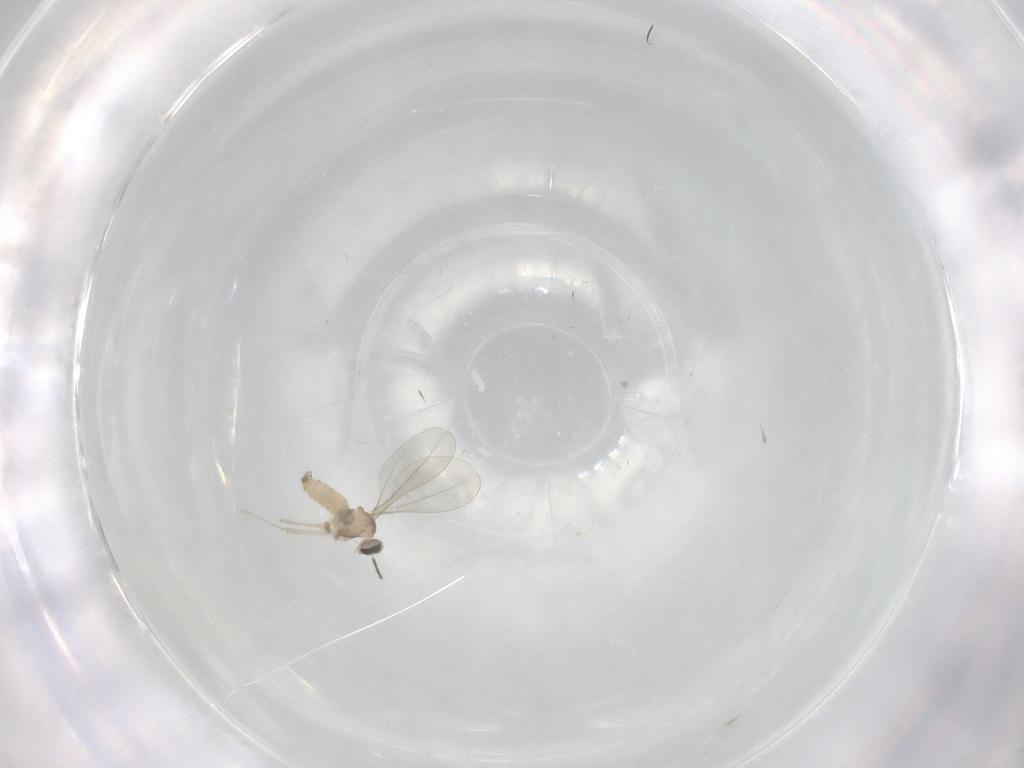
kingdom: Animalia
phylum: Arthropoda
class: Insecta
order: Diptera
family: Cecidomyiidae
